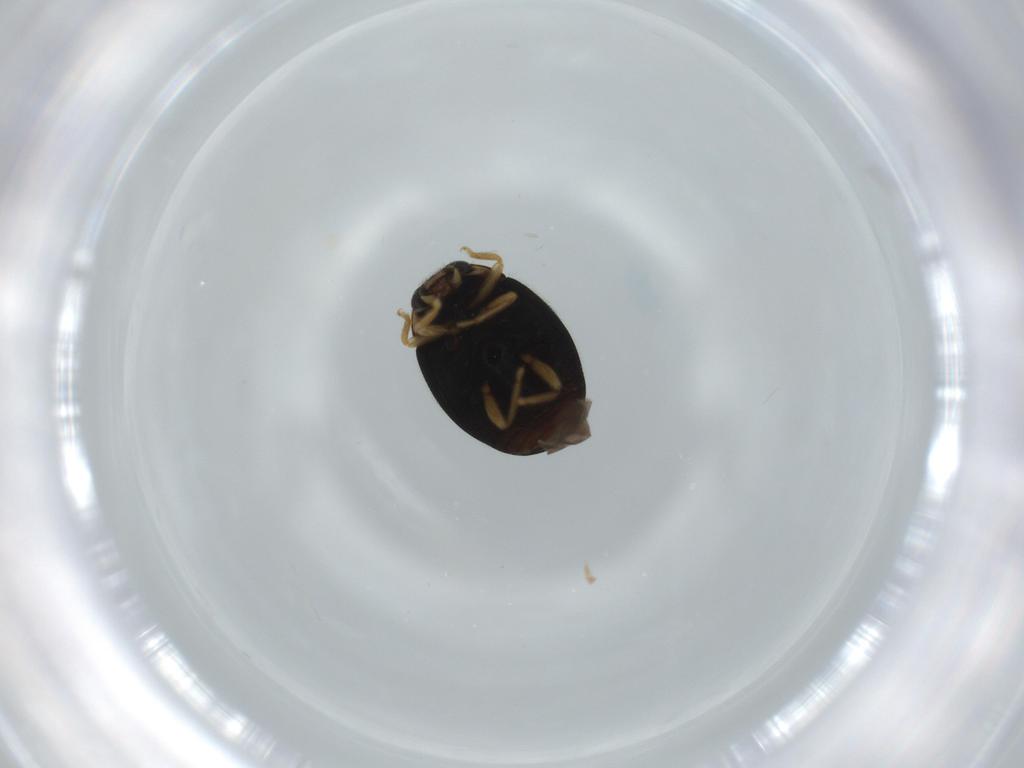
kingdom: Animalia
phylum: Arthropoda
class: Insecta
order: Coleoptera
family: Coccinellidae
